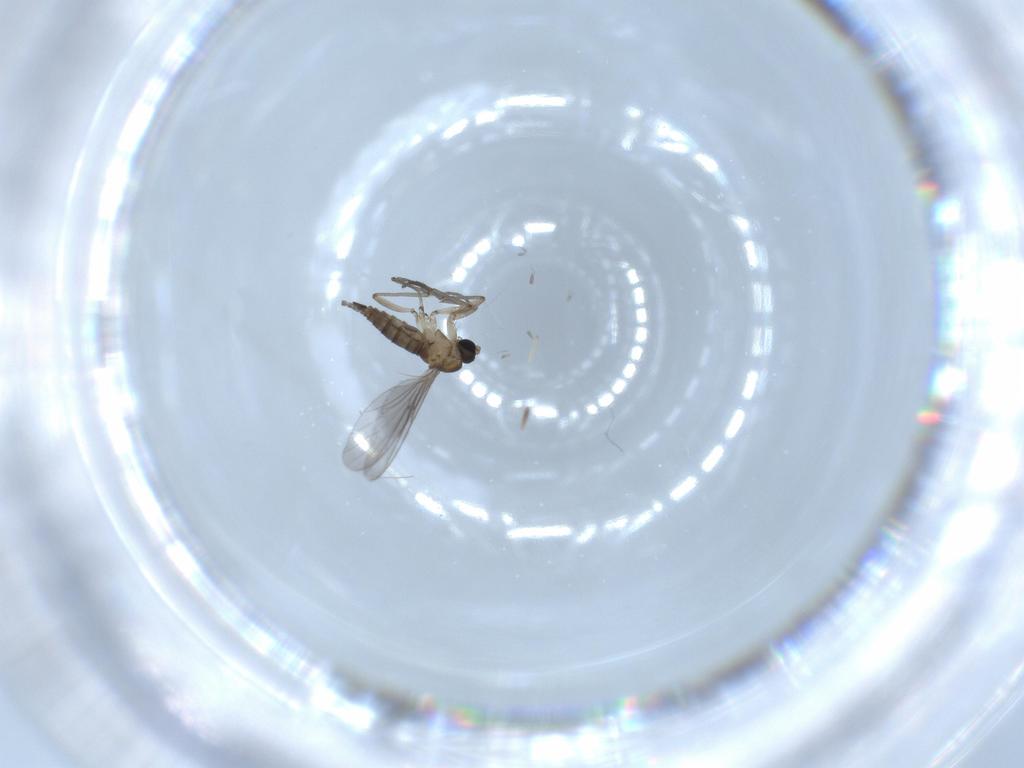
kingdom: Animalia
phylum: Arthropoda
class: Insecta
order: Diptera
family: Sciaridae
